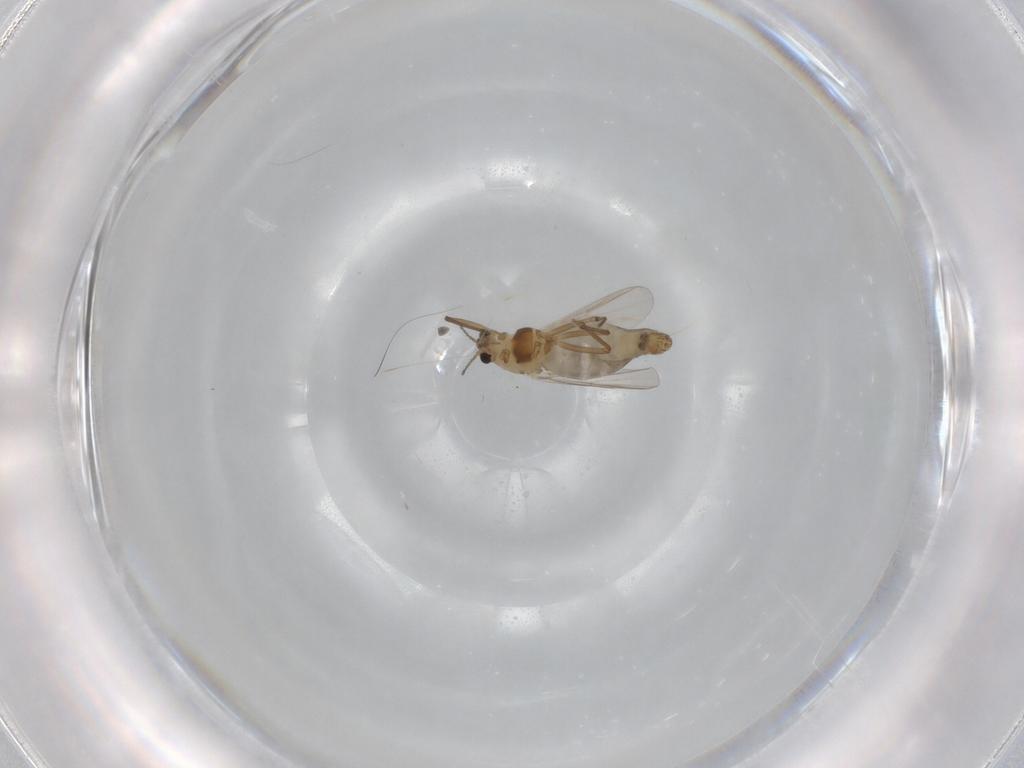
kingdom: Animalia
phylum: Arthropoda
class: Insecta
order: Diptera
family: Chironomidae
